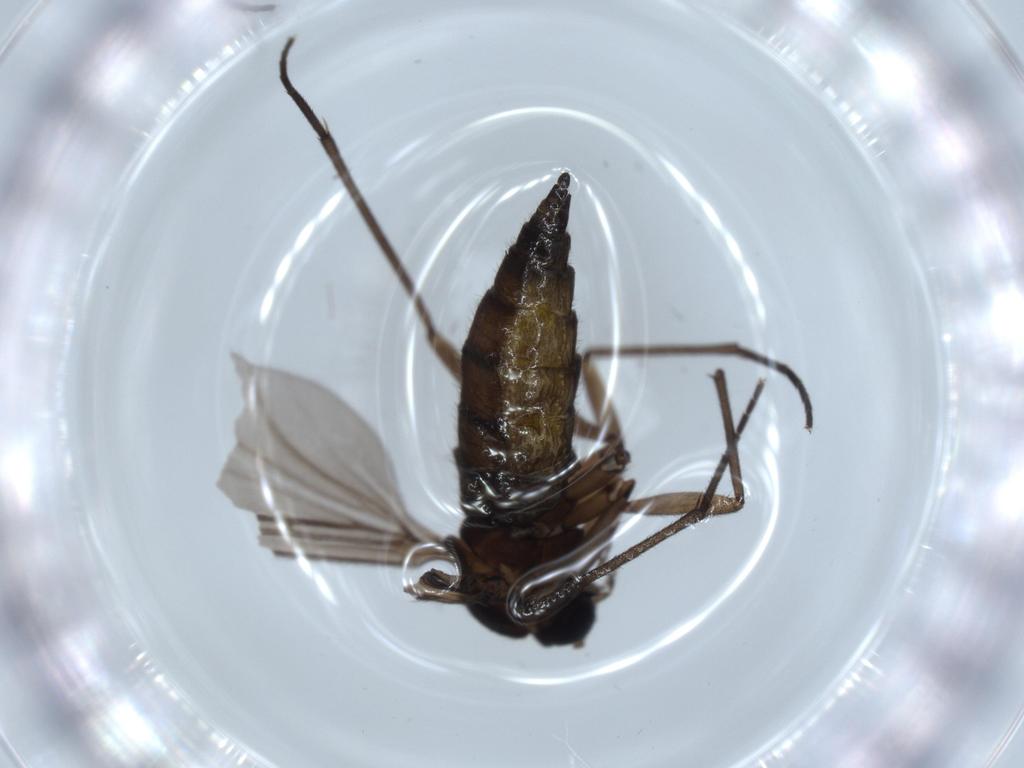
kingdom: Animalia
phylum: Arthropoda
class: Insecta
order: Diptera
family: Sciaridae
